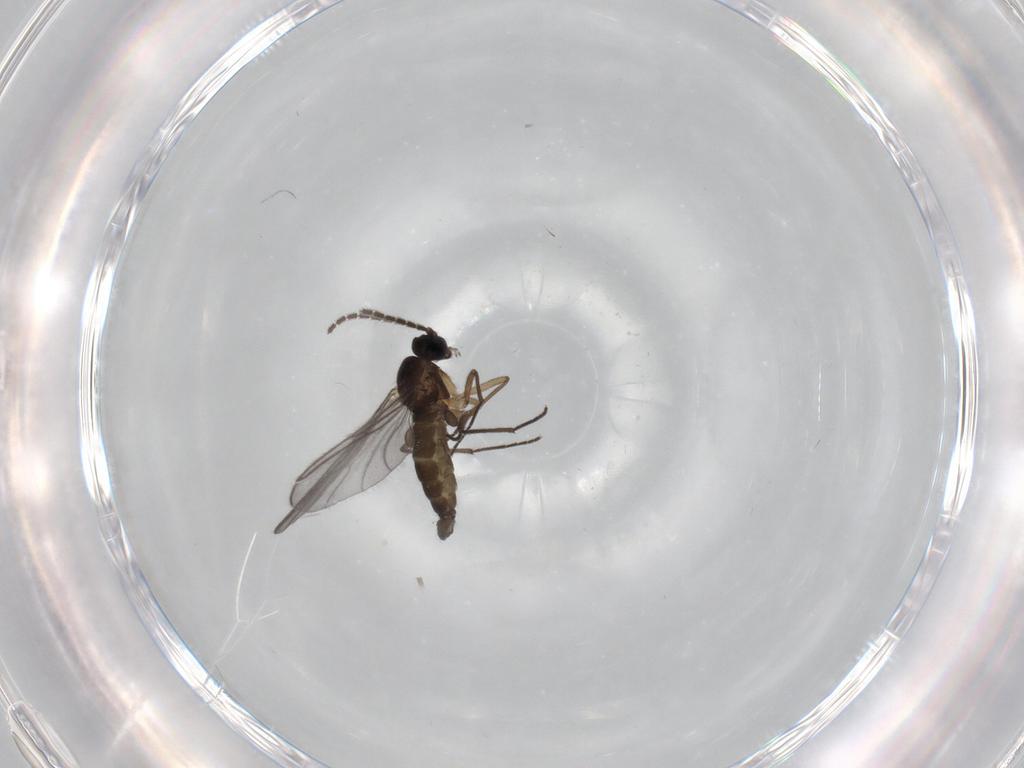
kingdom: Animalia
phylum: Arthropoda
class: Insecta
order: Diptera
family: Sciaridae
